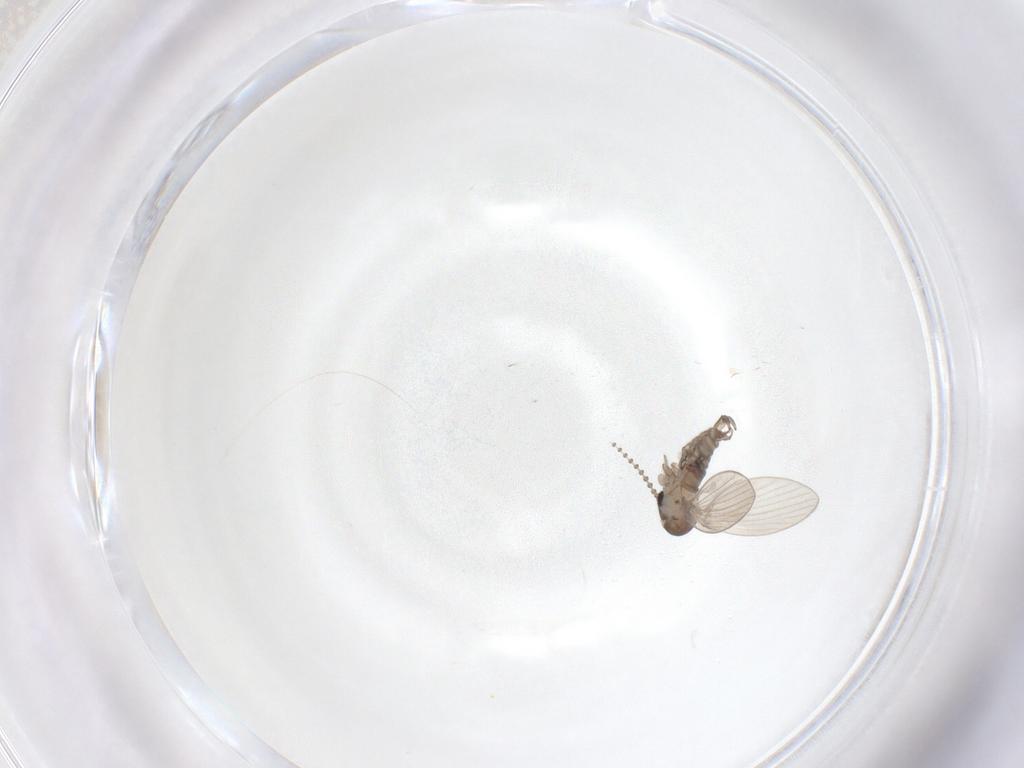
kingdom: Animalia
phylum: Arthropoda
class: Insecta
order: Diptera
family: Psychodidae
